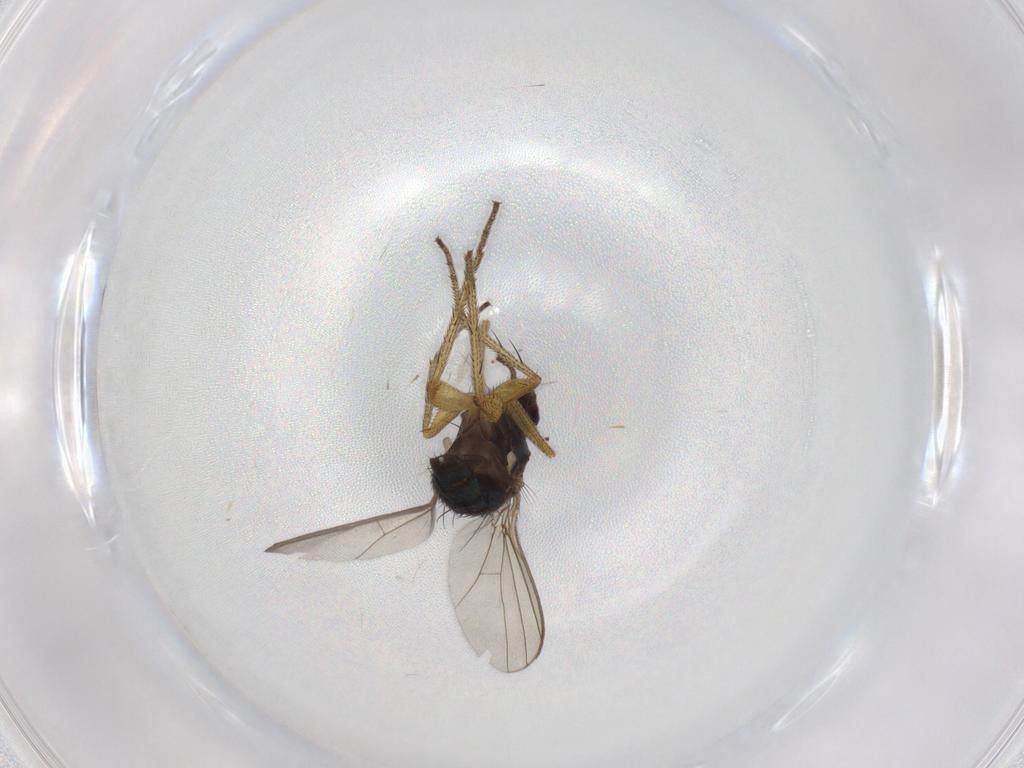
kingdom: Animalia
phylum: Arthropoda
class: Insecta
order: Diptera
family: Dolichopodidae
